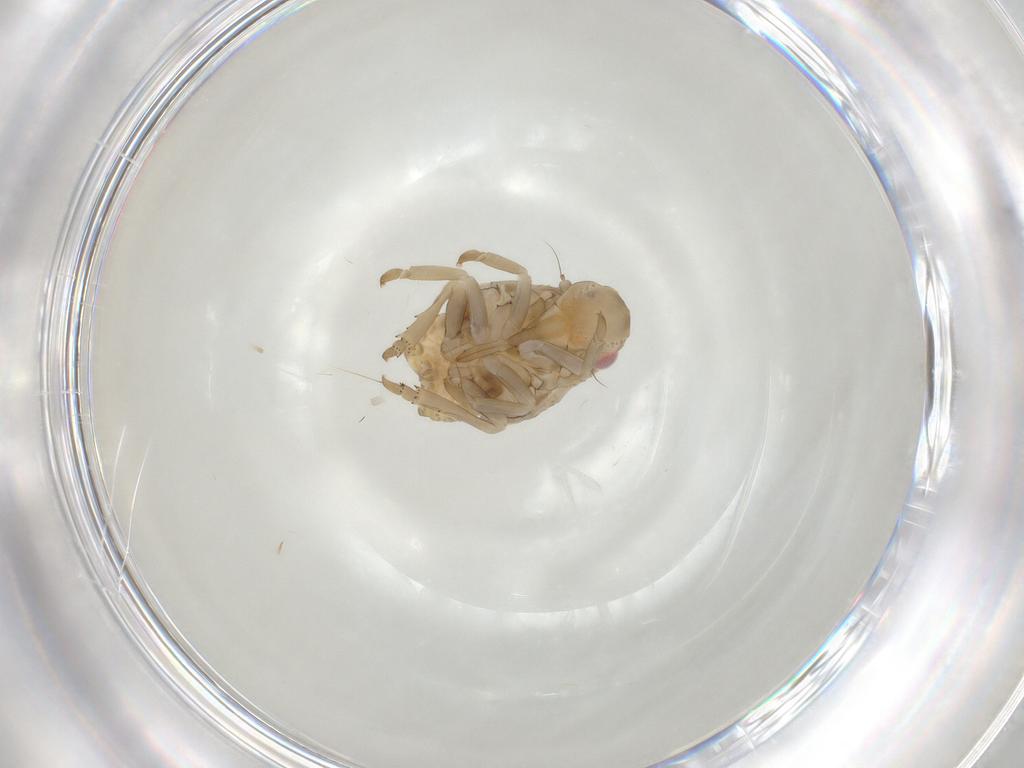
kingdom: Animalia
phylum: Arthropoda
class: Insecta
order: Hemiptera
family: Flatidae
